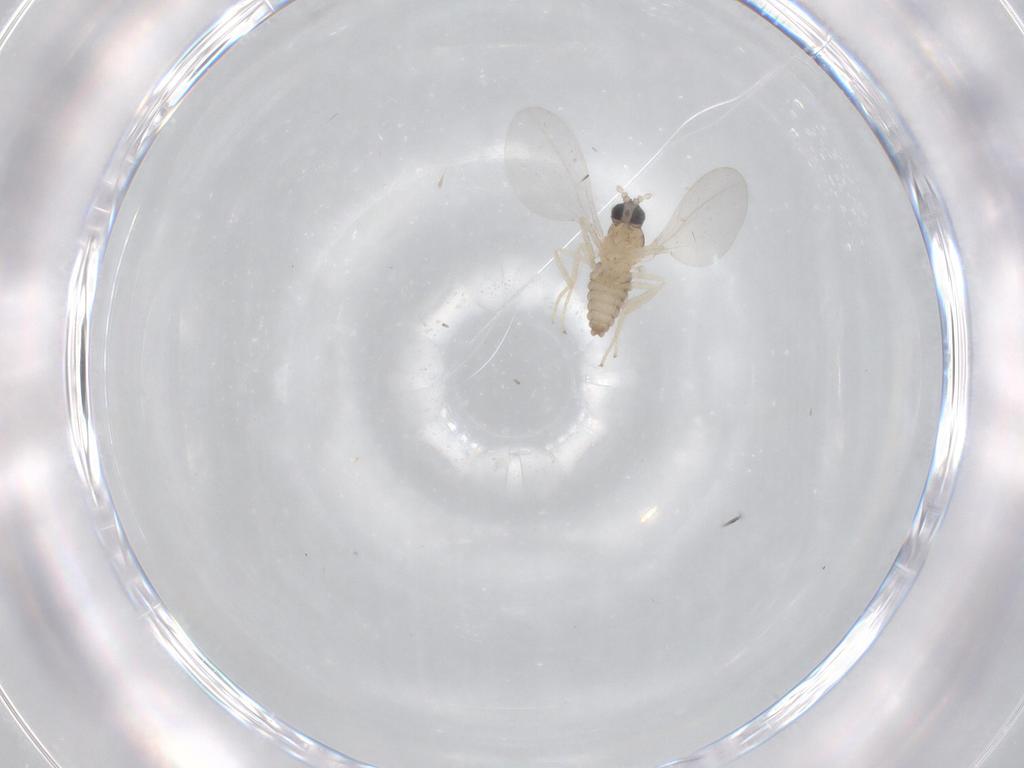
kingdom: Animalia
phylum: Arthropoda
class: Insecta
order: Diptera
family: Cecidomyiidae
